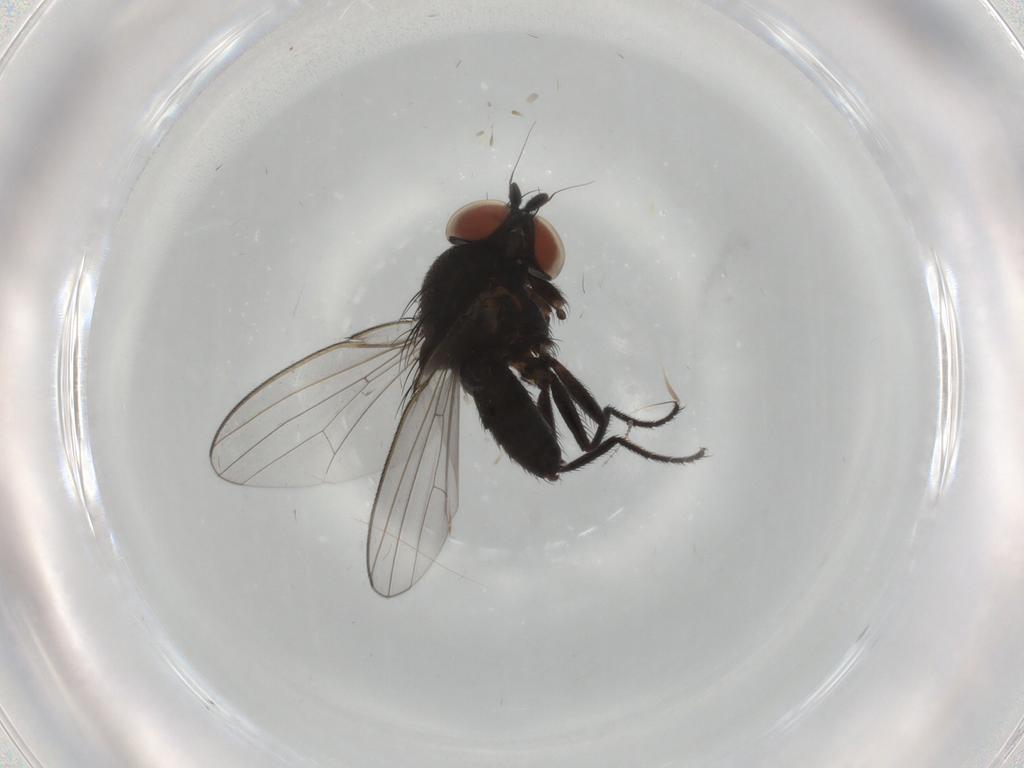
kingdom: Animalia
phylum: Arthropoda
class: Insecta
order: Diptera
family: Milichiidae
